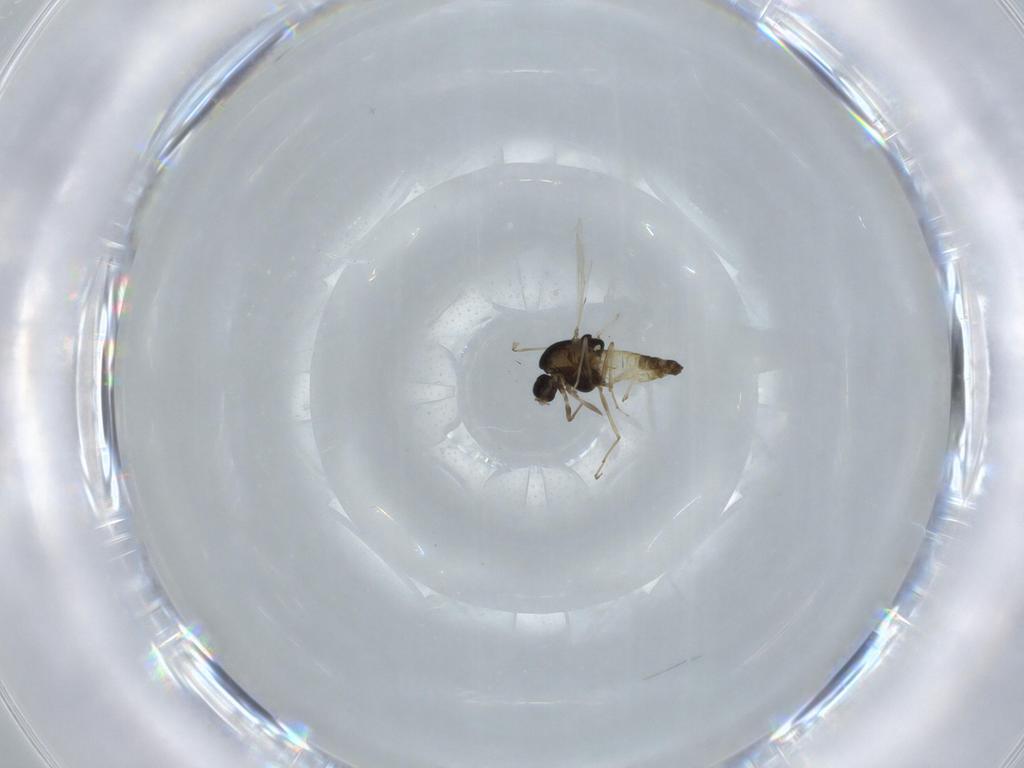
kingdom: Animalia
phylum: Arthropoda
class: Insecta
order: Diptera
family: Chironomidae
